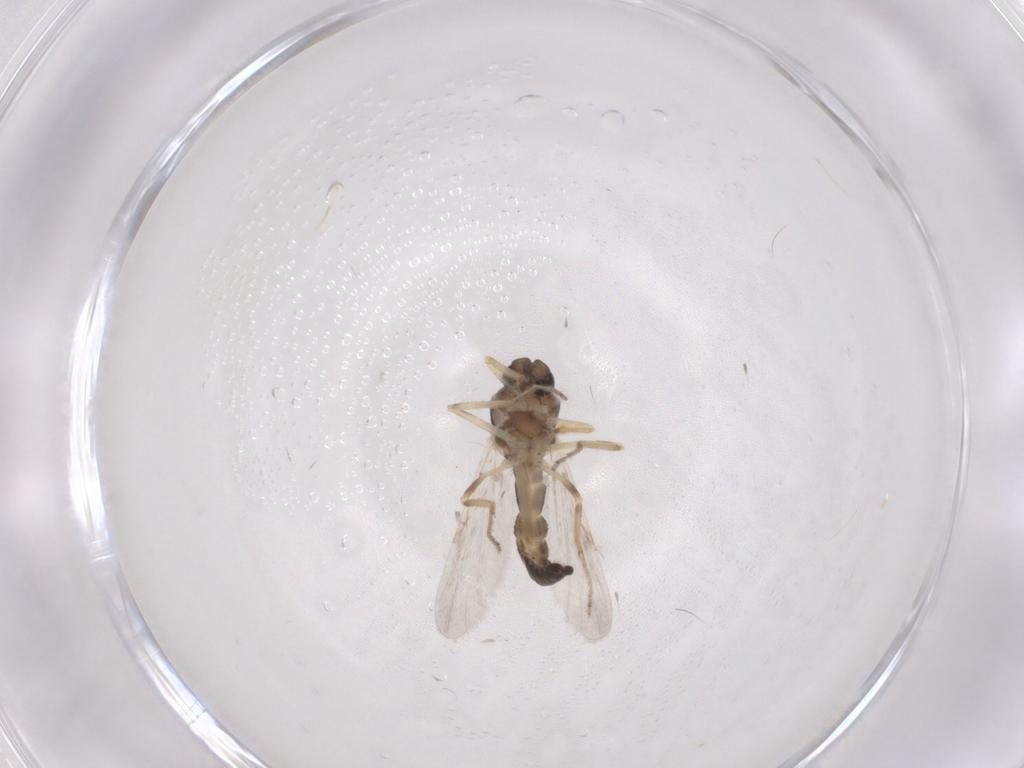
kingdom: Animalia
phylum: Arthropoda
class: Insecta
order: Diptera
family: Ceratopogonidae
